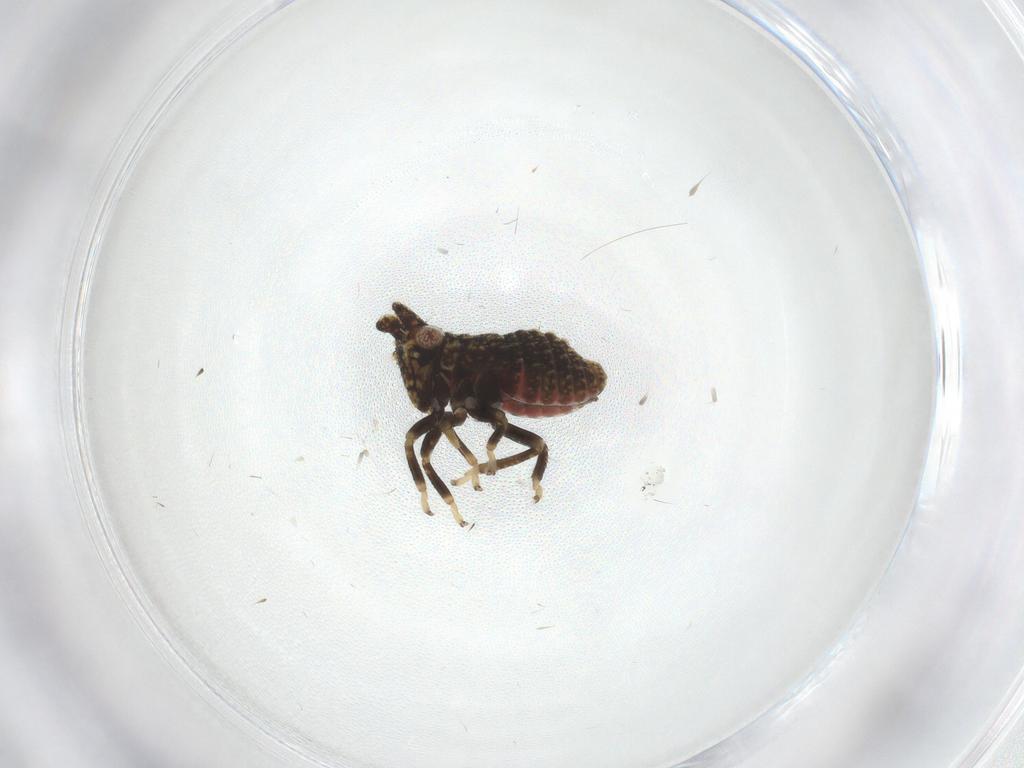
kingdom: Animalia
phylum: Arthropoda
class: Insecta
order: Hemiptera
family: Cicadellidae
